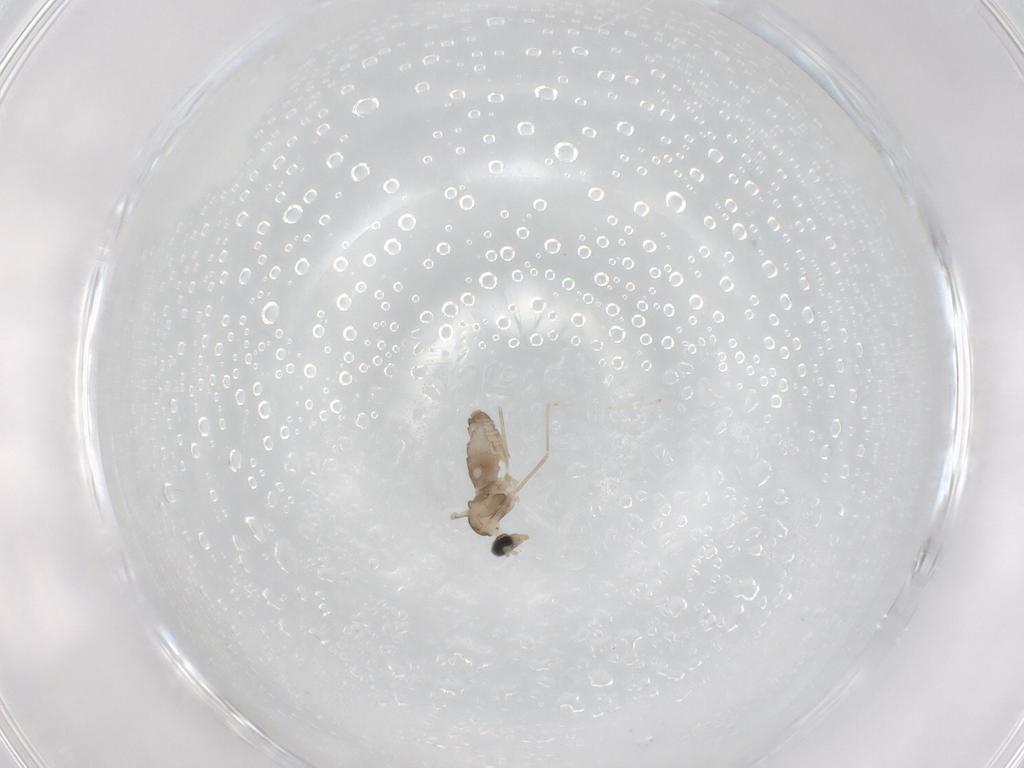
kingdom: Animalia
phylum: Arthropoda
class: Insecta
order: Diptera
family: Cecidomyiidae
